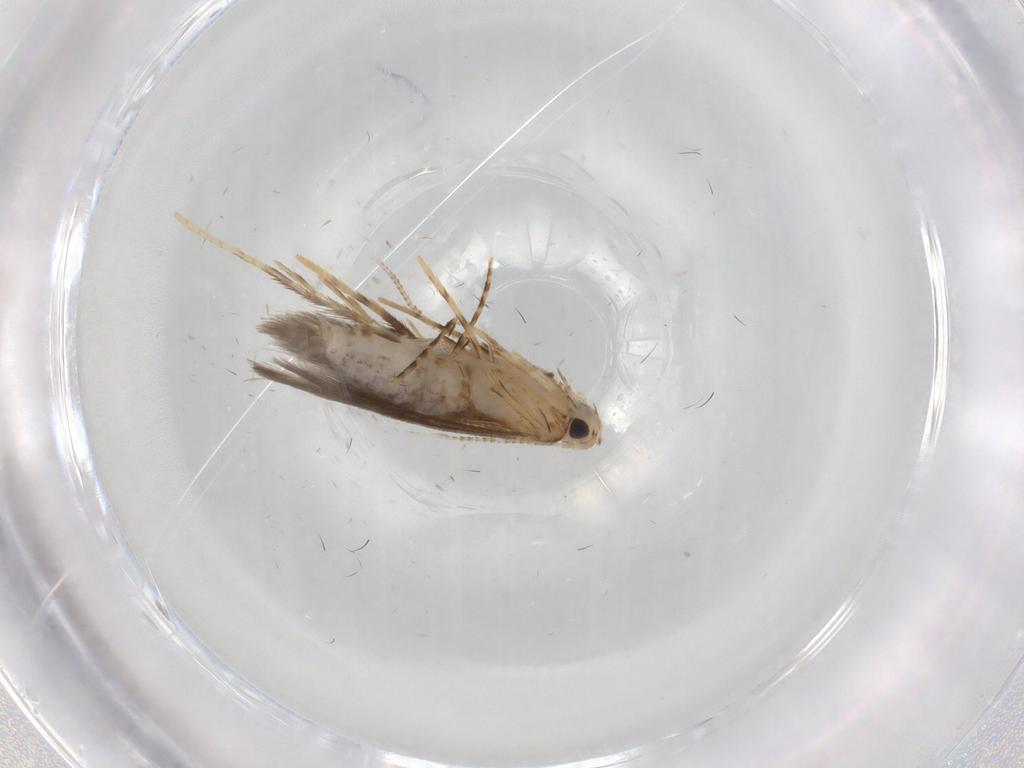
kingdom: Animalia
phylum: Arthropoda
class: Insecta
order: Lepidoptera
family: Lyonetiidae
